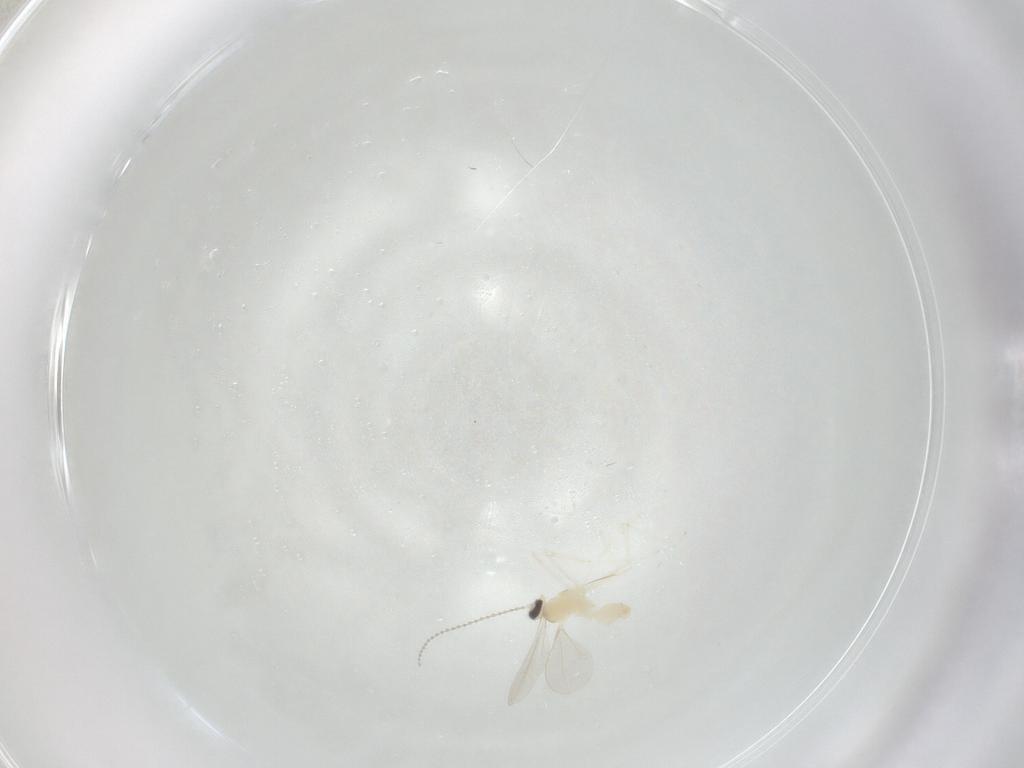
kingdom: Animalia
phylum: Arthropoda
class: Insecta
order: Diptera
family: Cecidomyiidae
